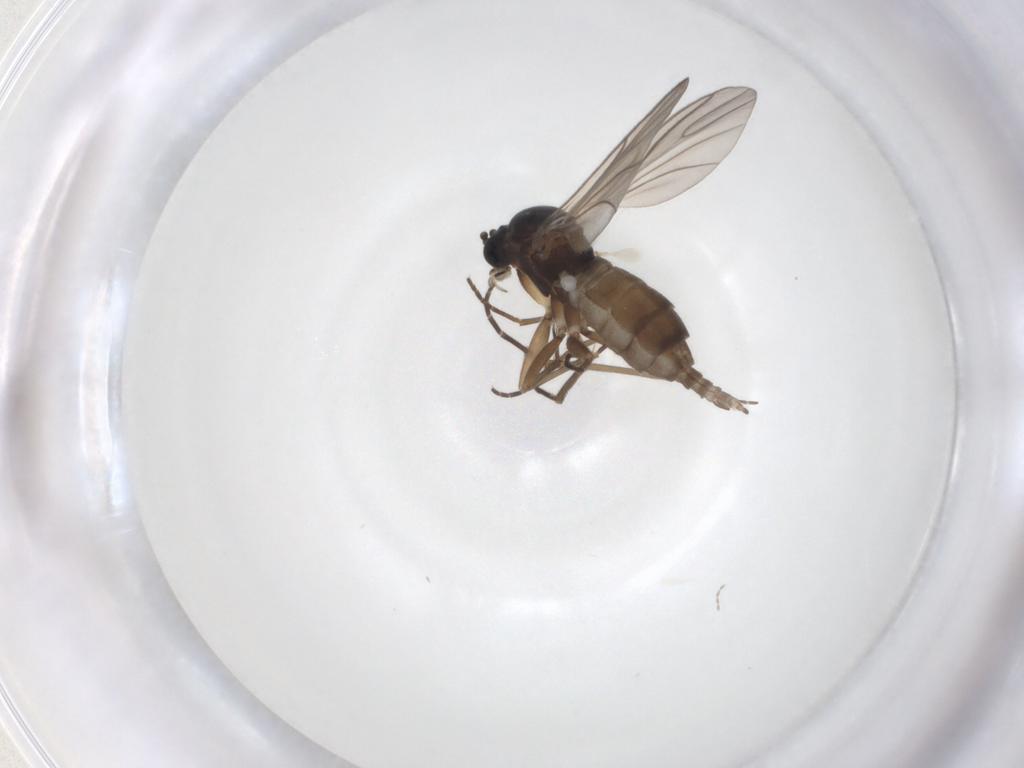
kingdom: Animalia
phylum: Arthropoda
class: Insecta
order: Diptera
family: Sciaridae
